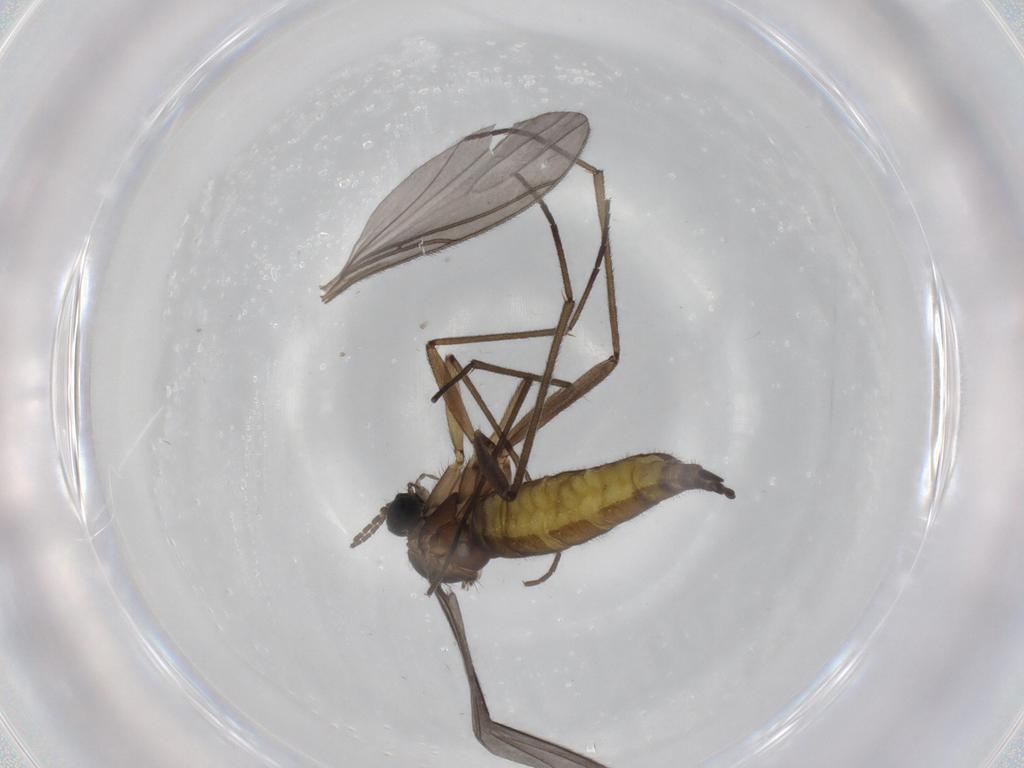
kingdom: Animalia
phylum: Arthropoda
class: Insecta
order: Diptera
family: Sciaridae
